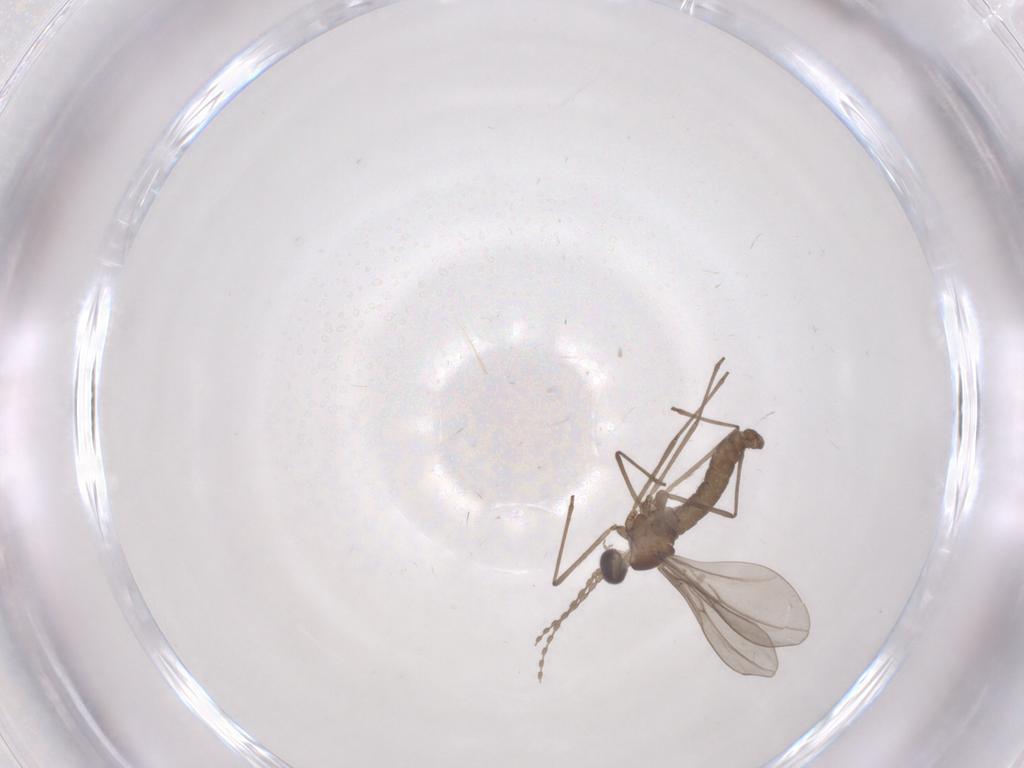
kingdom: Animalia
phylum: Arthropoda
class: Insecta
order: Diptera
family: Cecidomyiidae
